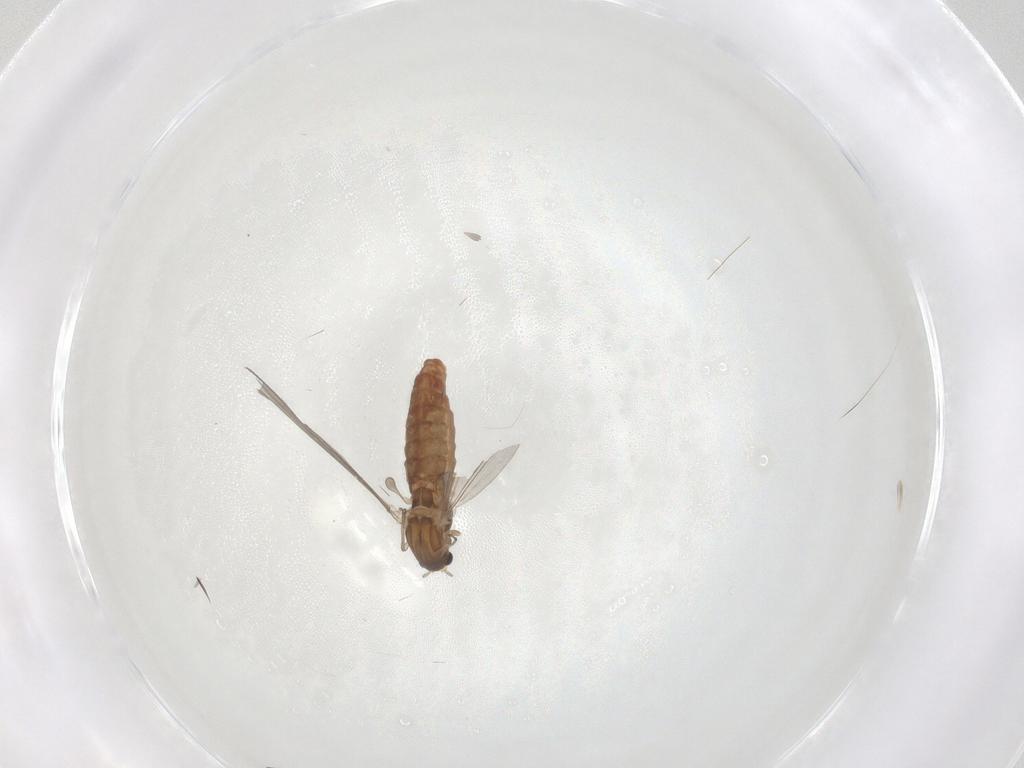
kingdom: Animalia
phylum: Arthropoda
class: Insecta
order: Diptera
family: Chironomidae
